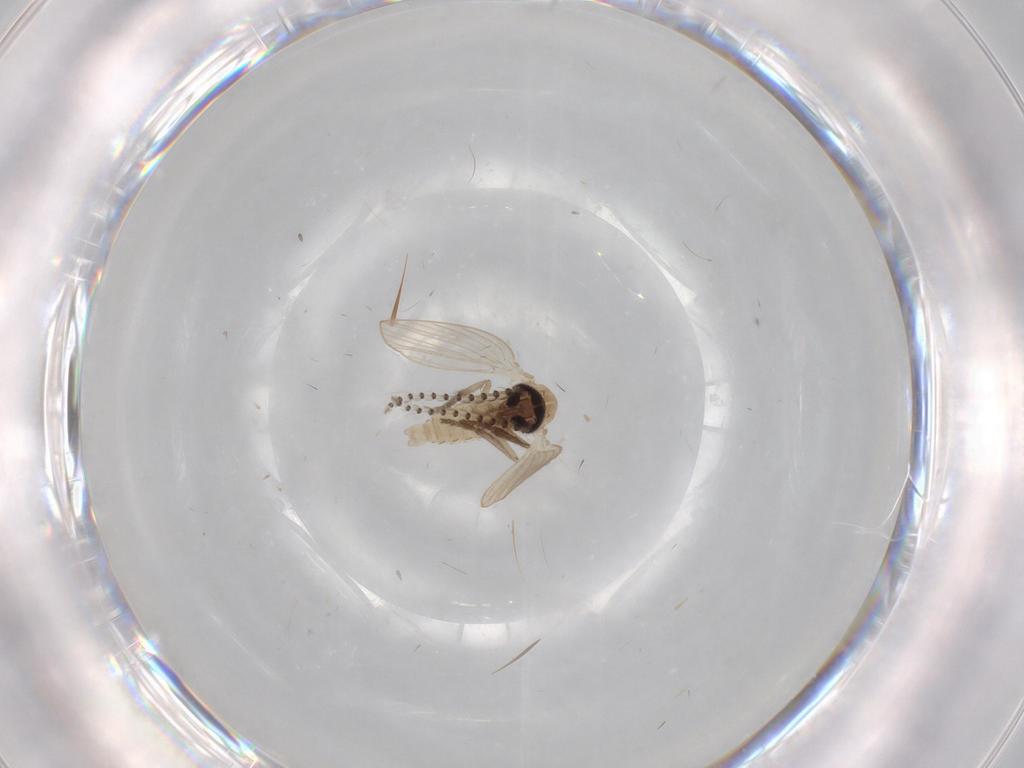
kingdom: Animalia
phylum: Arthropoda
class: Insecta
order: Diptera
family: Psychodidae
